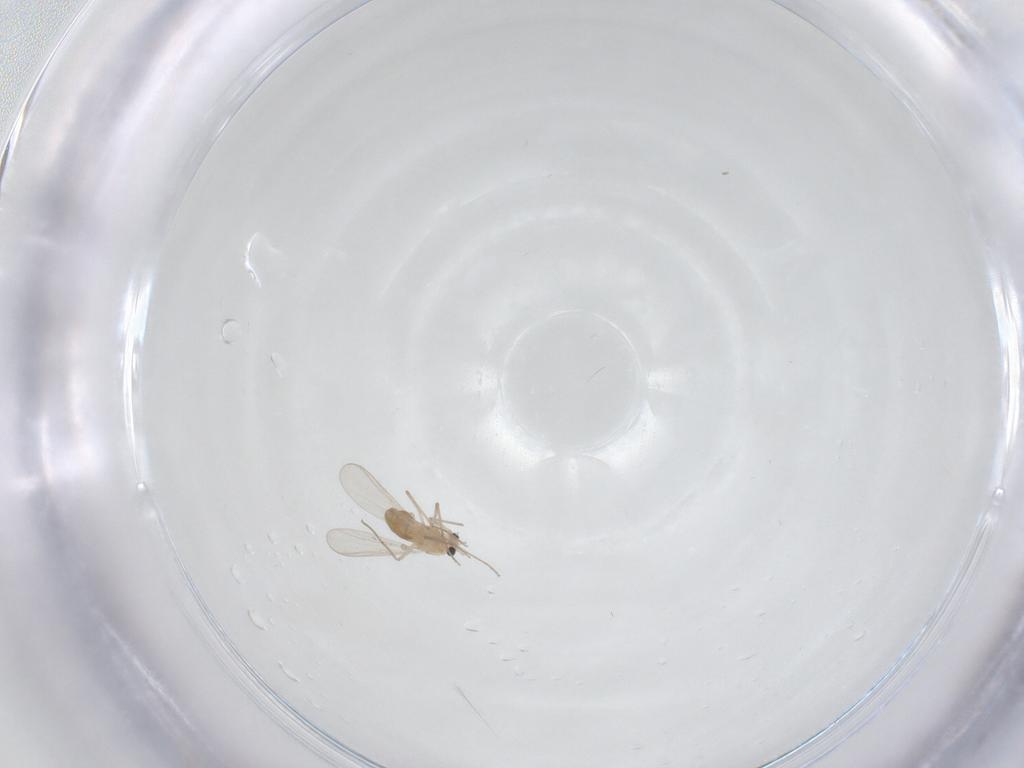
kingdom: Animalia
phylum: Arthropoda
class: Insecta
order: Diptera
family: Chironomidae
